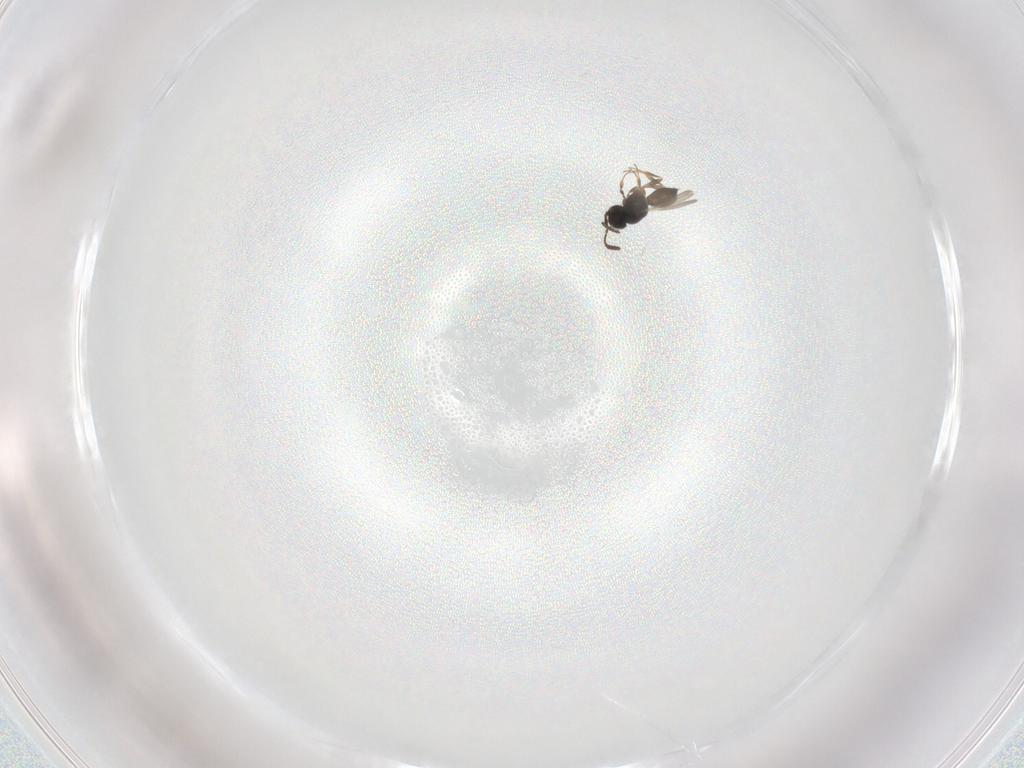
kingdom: Animalia
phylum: Arthropoda
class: Insecta
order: Hymenoptera
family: Scelionidae
